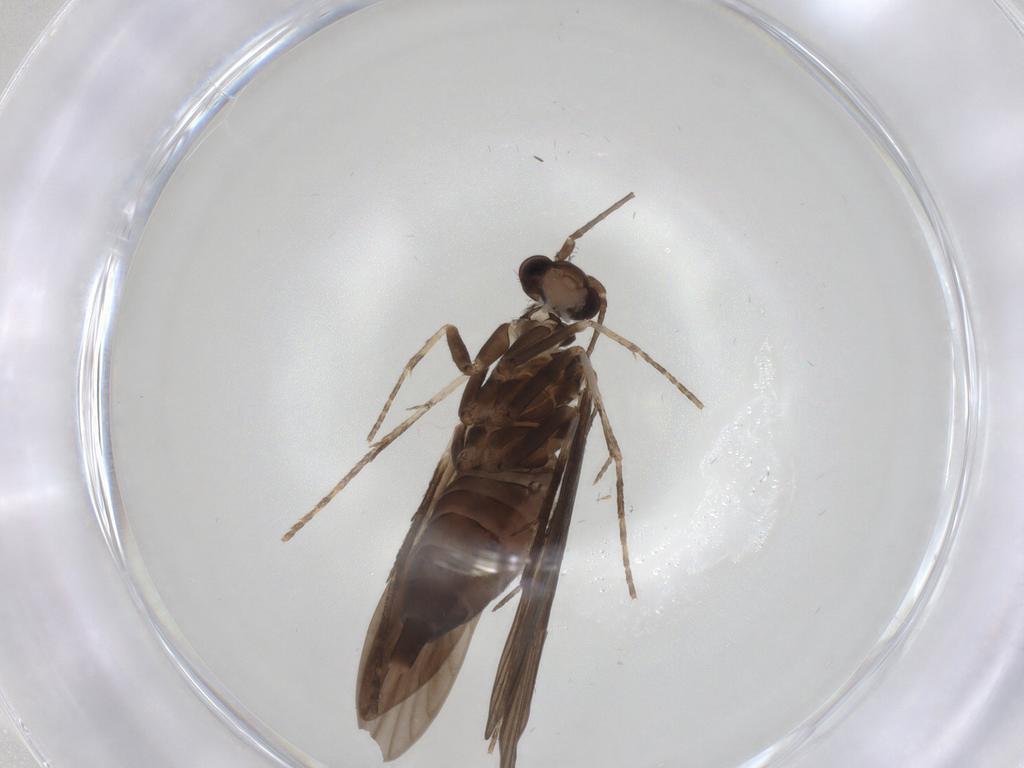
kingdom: Animalia
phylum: Arthropoda
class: Insecta
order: Trichoptera
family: Xiphocentronidae
